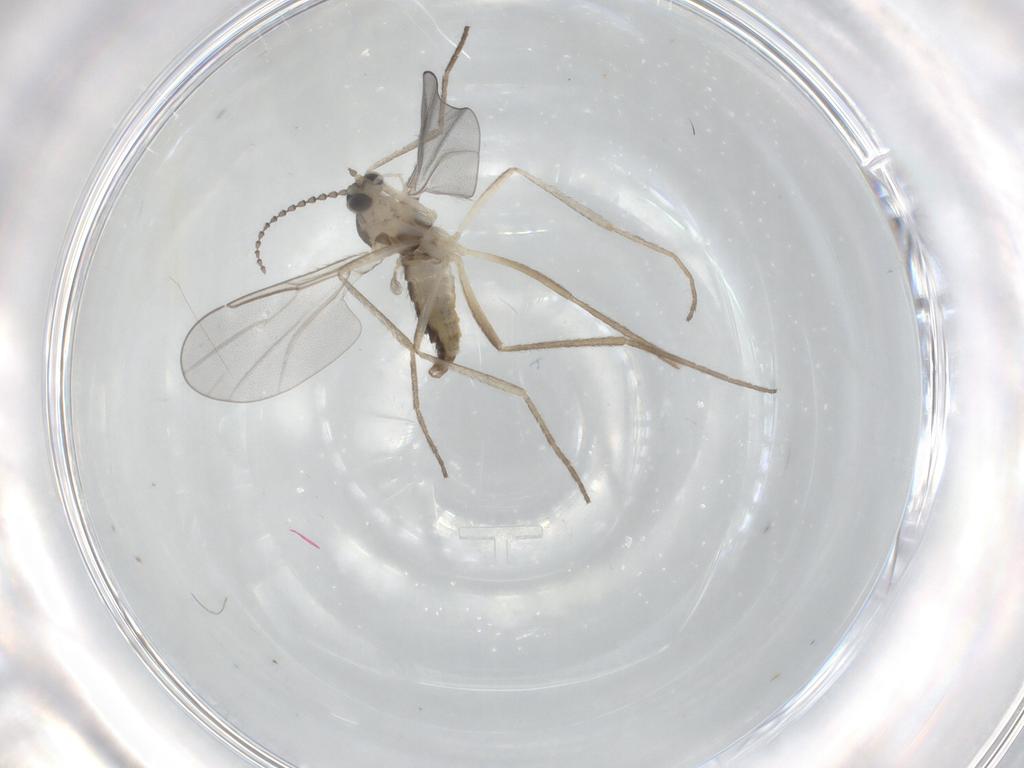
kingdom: Animalia
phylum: Arthropoda
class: Insecta
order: Diptera
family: Cecidomyiidae
